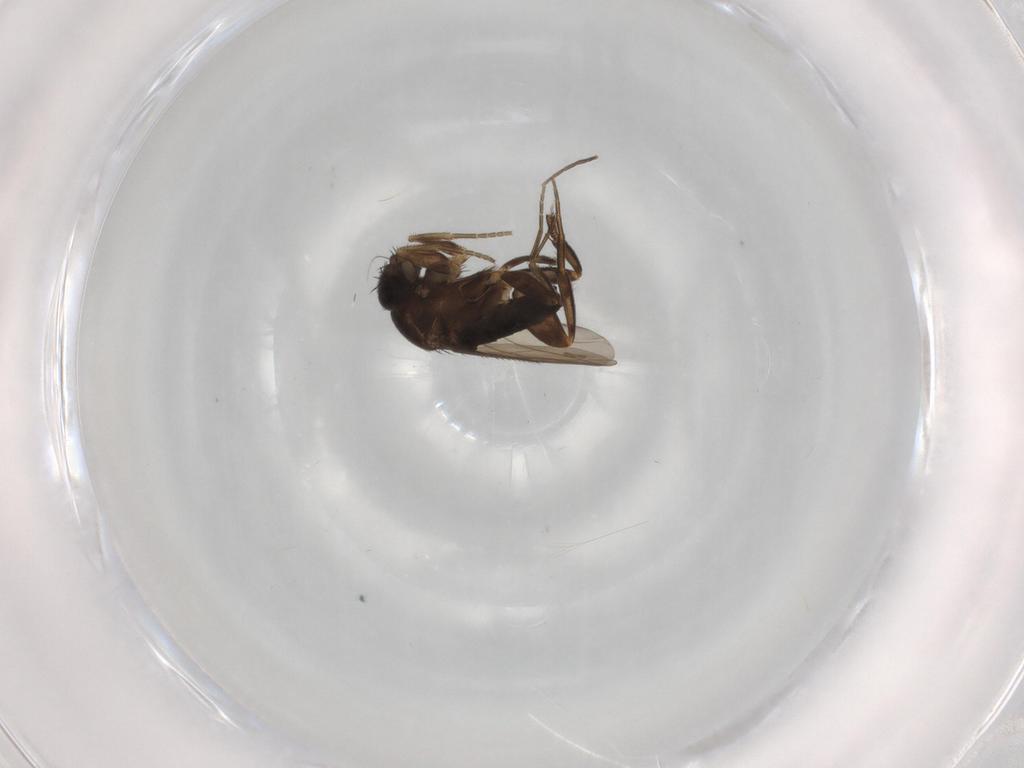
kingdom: Animalia
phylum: Arthropoda
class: Insecta
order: Diptera
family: Phoridae
